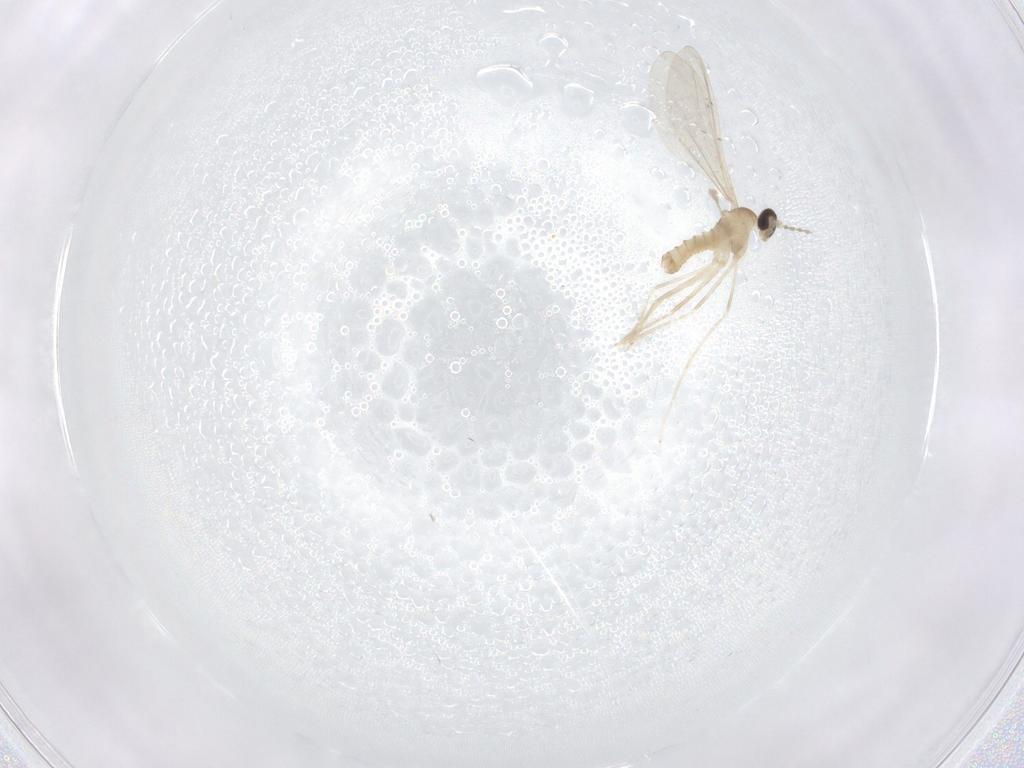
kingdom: Animalia
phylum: Arthropoda
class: Insecta
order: Diptera
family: Cecidomyiidae
